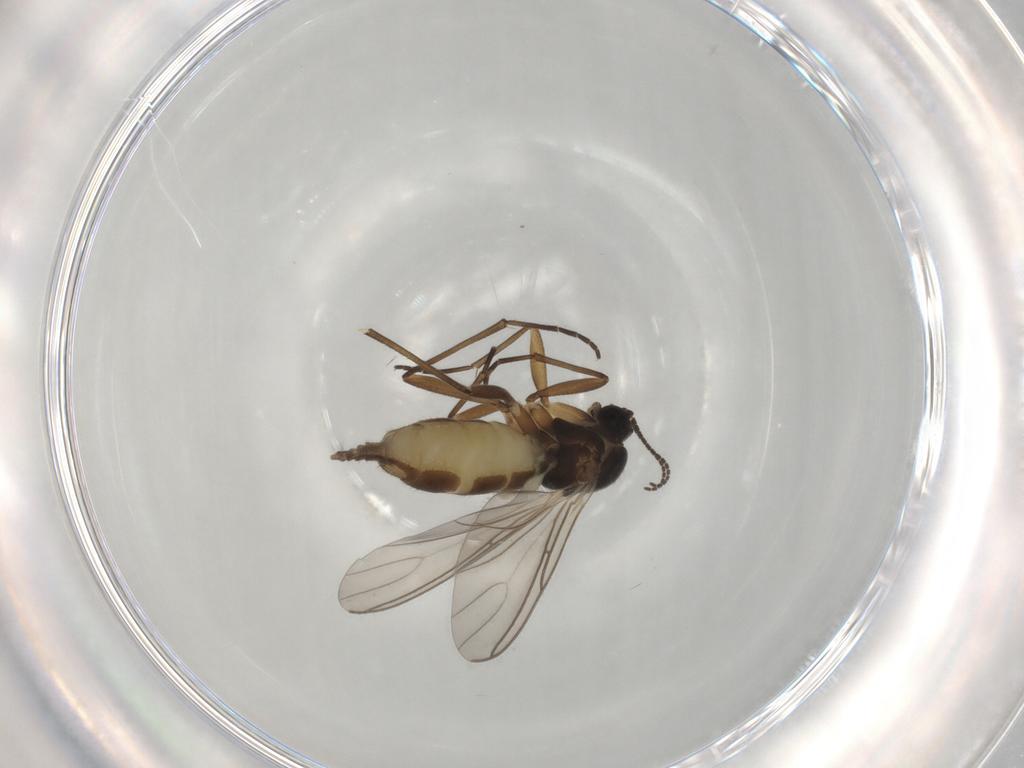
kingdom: Animalia
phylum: Arthropoda
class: Insecta
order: Diptera
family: Sciaridae
